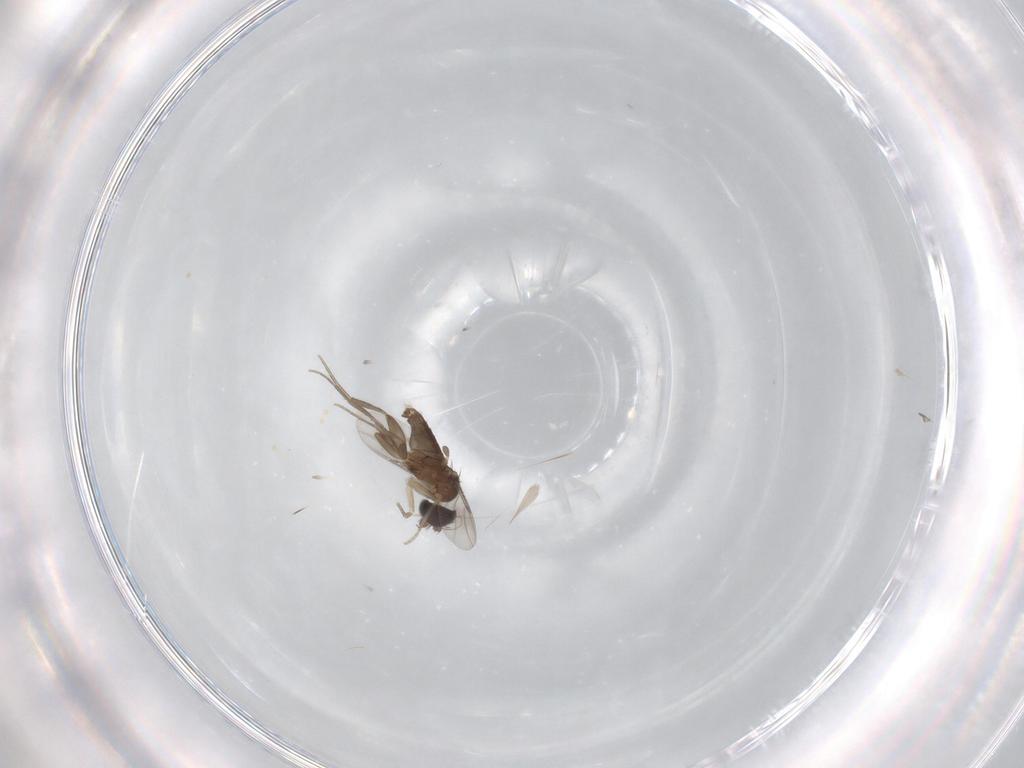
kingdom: Animalia
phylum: Arthropoda
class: Insecta
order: Diptera
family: Phoridae
